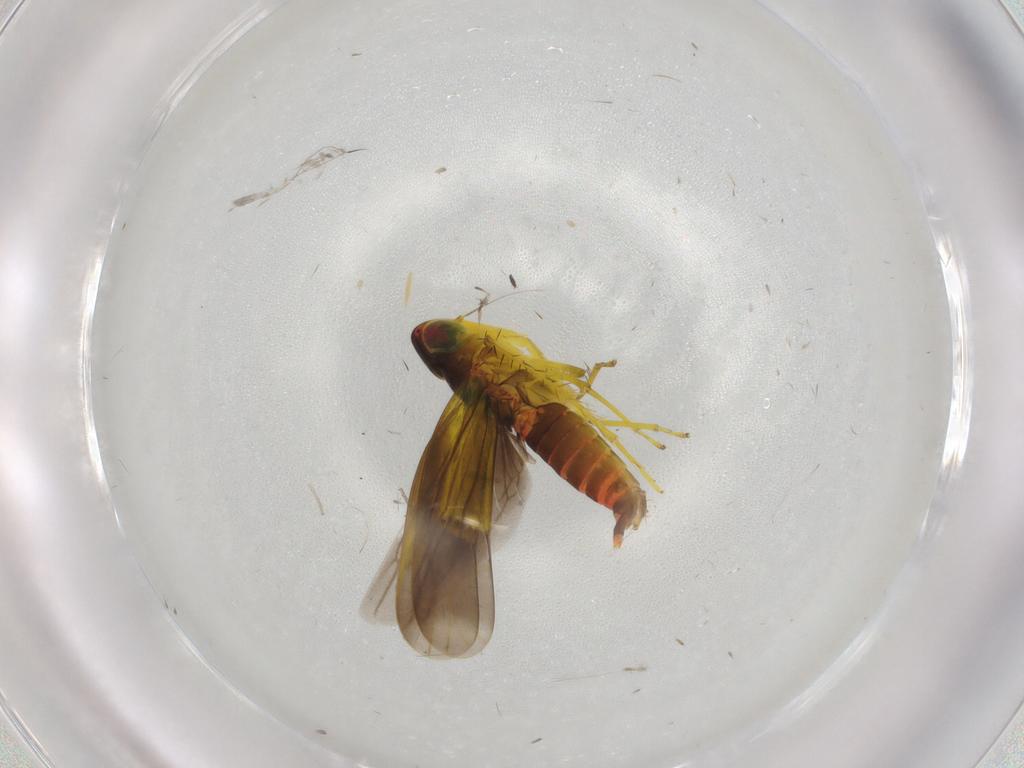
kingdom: Animalia
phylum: Arthropoda
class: Insecta
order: Hemiptera
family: Cicadellidae
